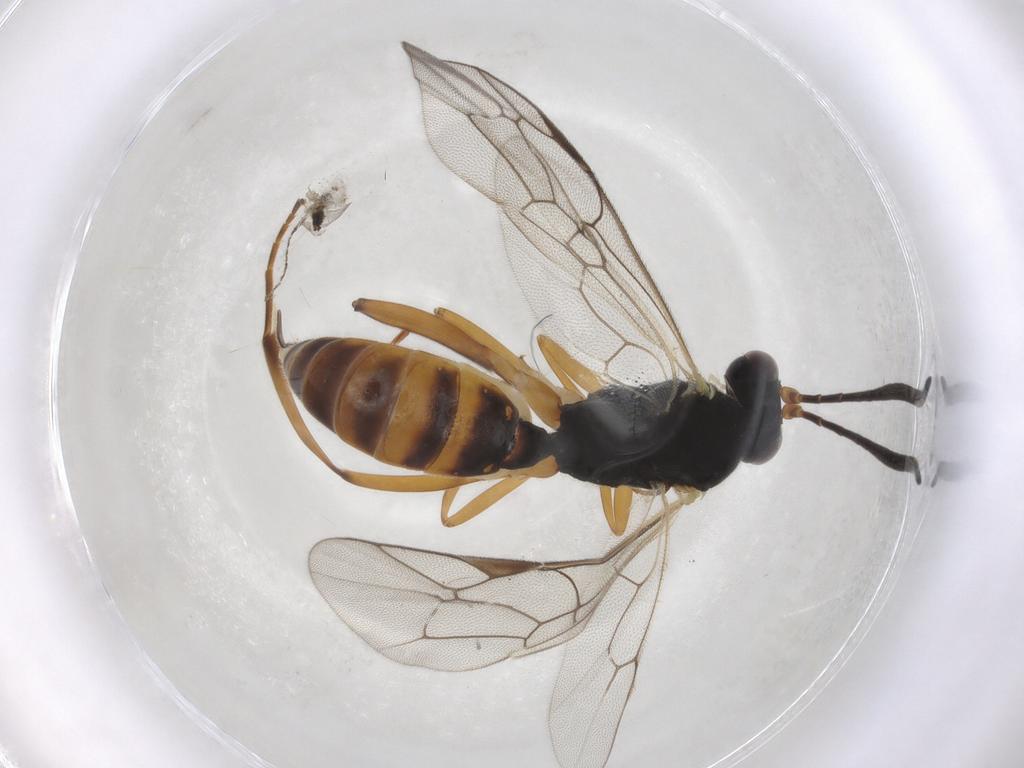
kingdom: Animalia
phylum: Arthropoda
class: Insecta
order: Hymenoptera
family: Ichneumonidae
